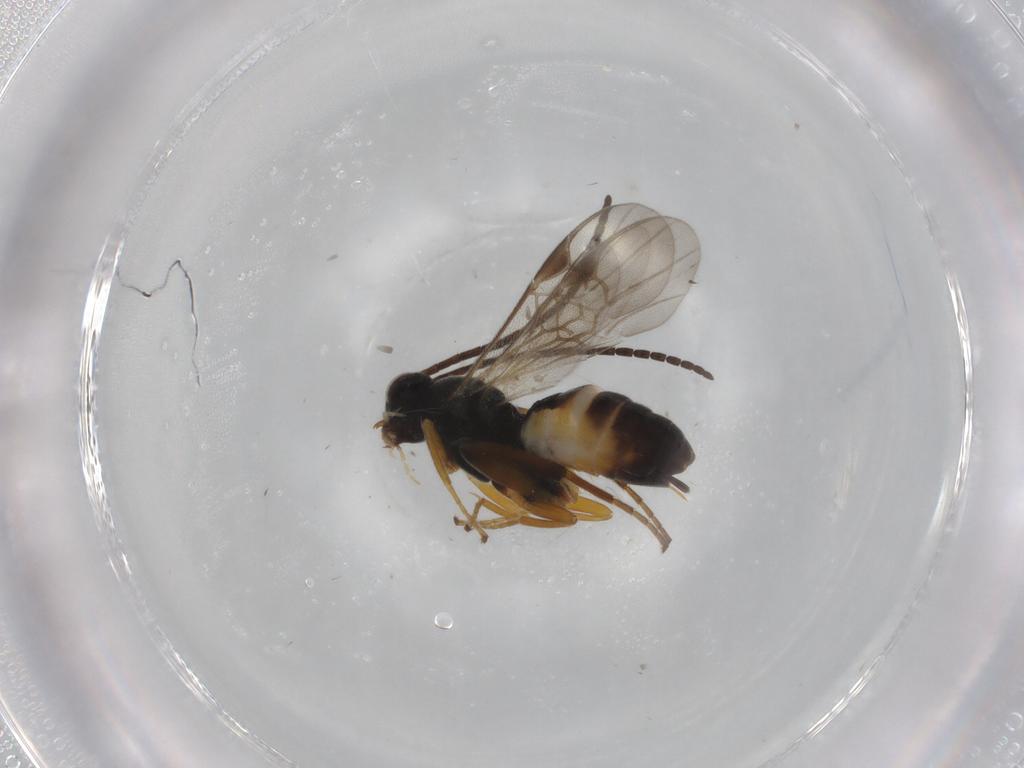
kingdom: Animalia
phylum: Arthropoda
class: Insecta
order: Hymenoptera
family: Braconidae
